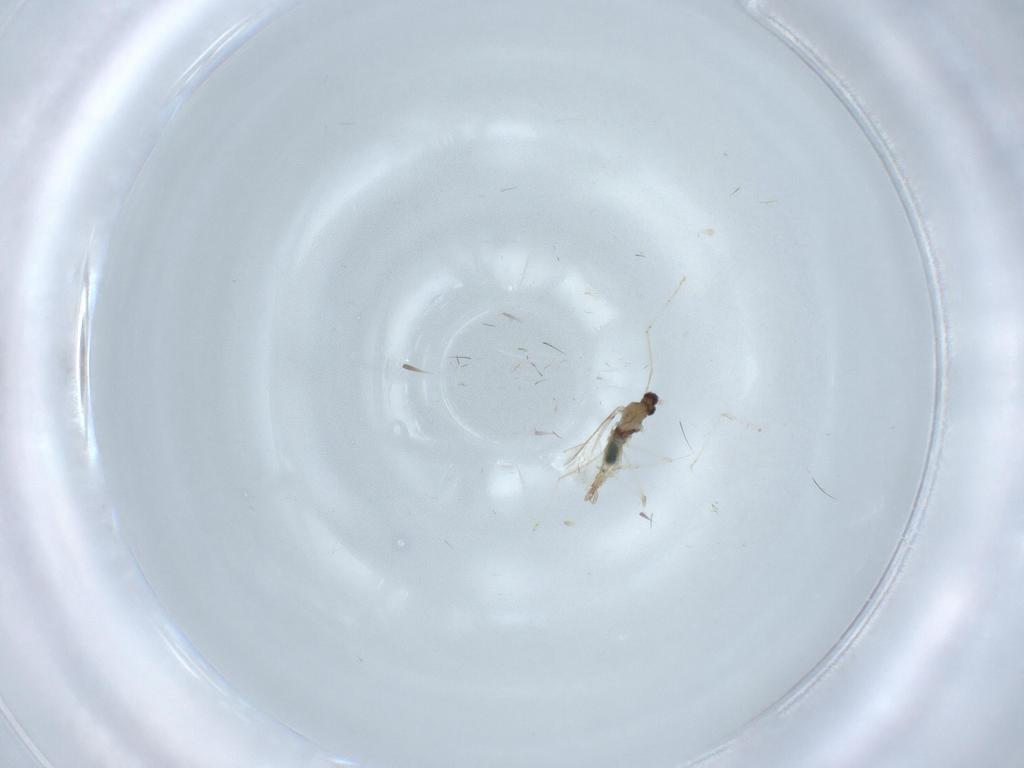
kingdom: Animalia
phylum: Arthropoda
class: Insecta
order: Diptera
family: Cecidomyiidae
